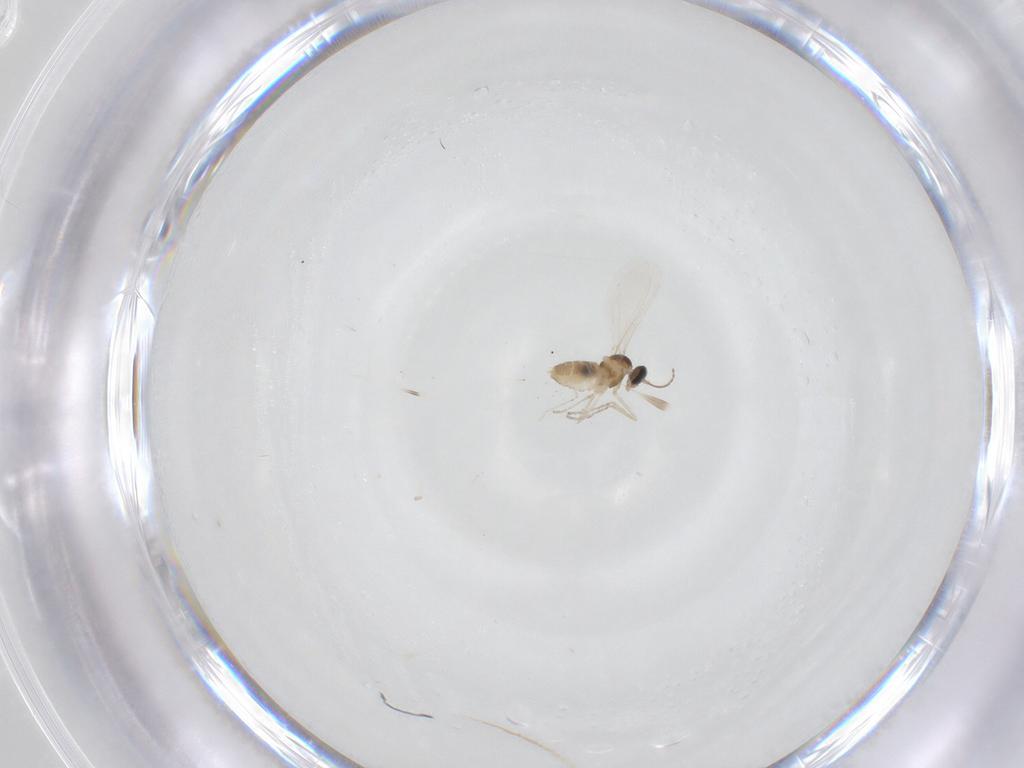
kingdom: Animalia
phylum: Arthropoda
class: Insecta
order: Diptera
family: Cecidomyiidae
